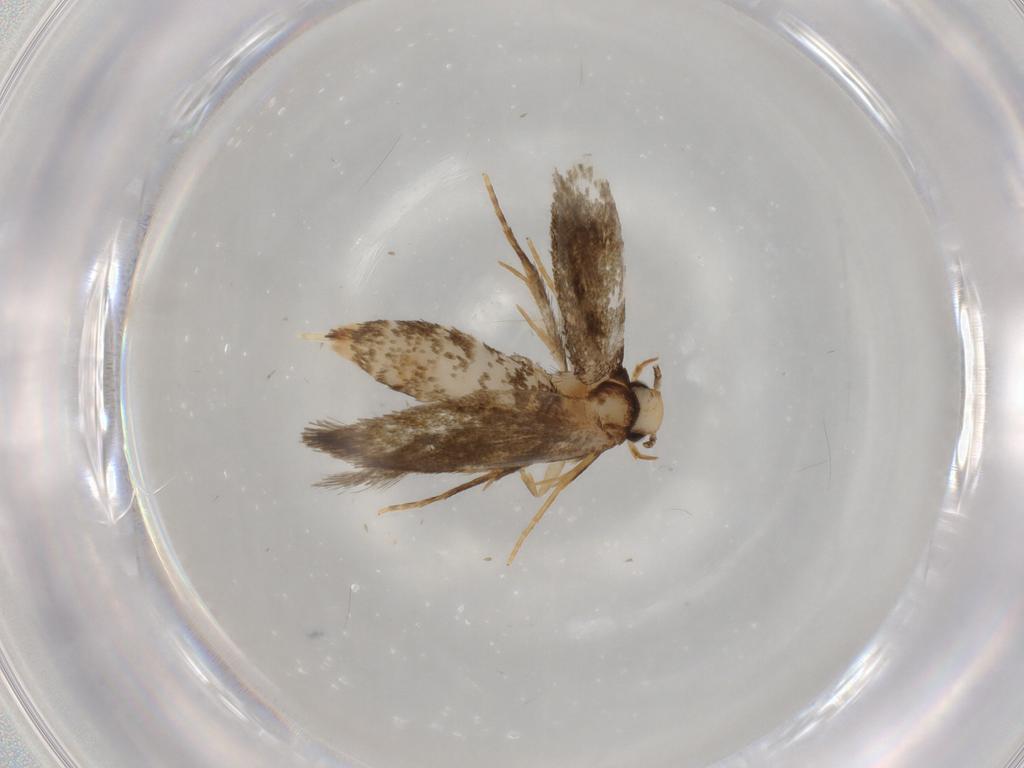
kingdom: Animalia
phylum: Arthropoda
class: Insecta
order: Lepidoptera
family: Tineidae
